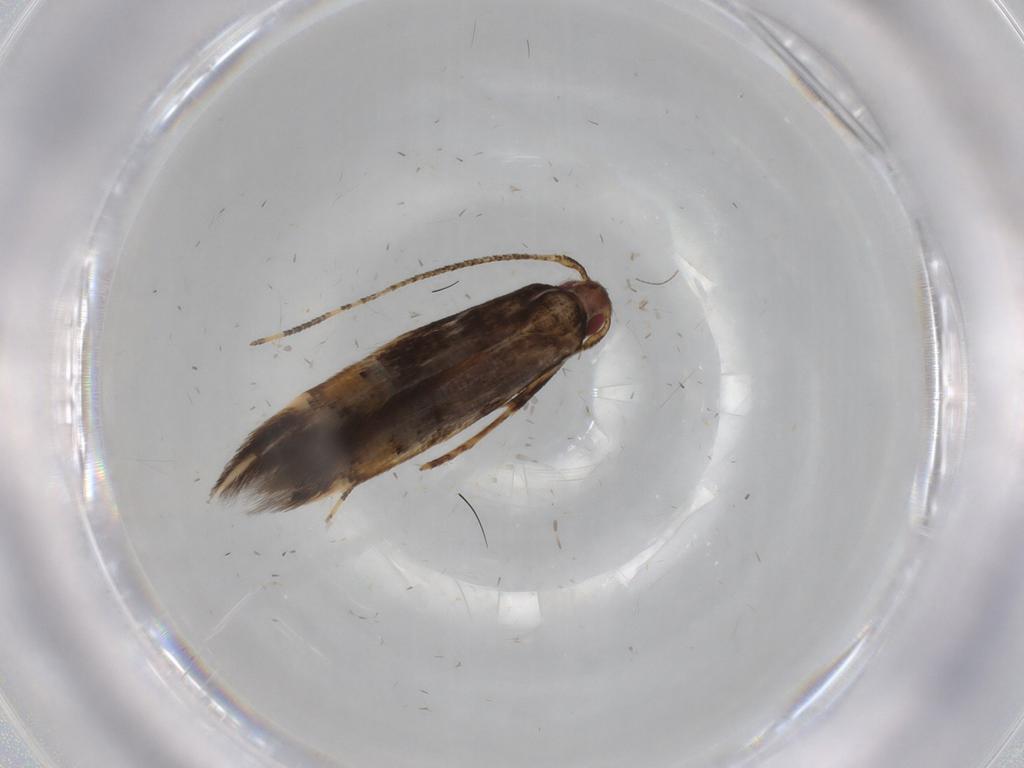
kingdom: Animalia
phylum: Arthropoda
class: Insecta
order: Lepidoptera
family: Cosmopterigidae
